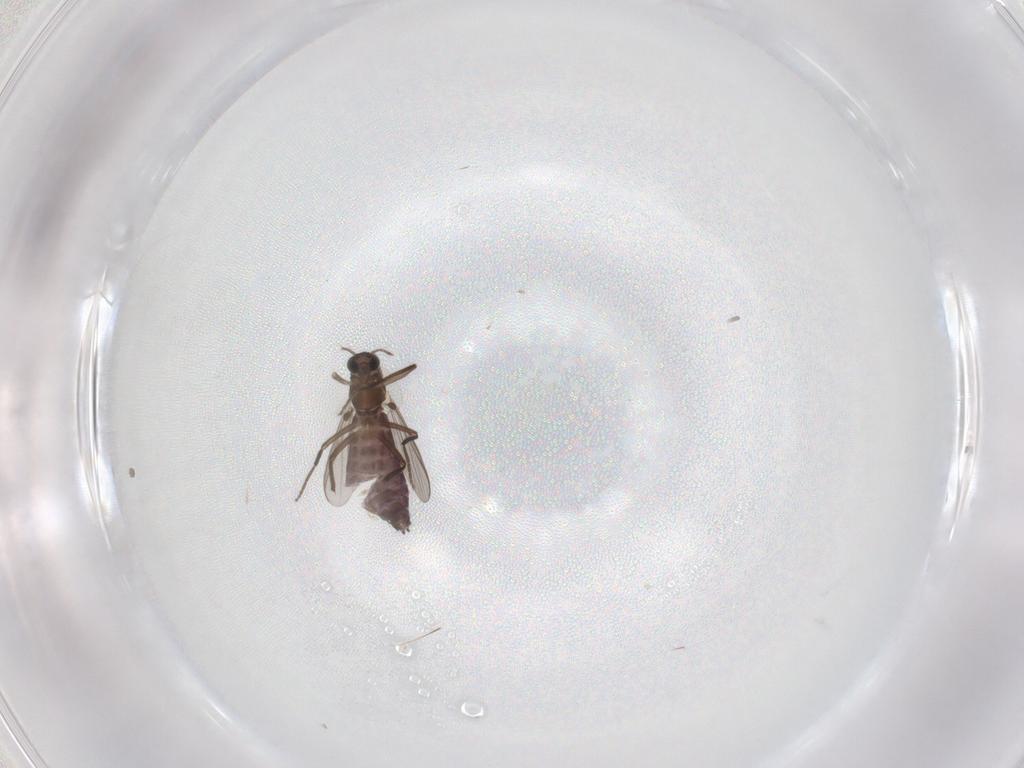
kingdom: Animalia
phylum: Arthropoda
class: Insecta
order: Diptera
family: Chironomidae
